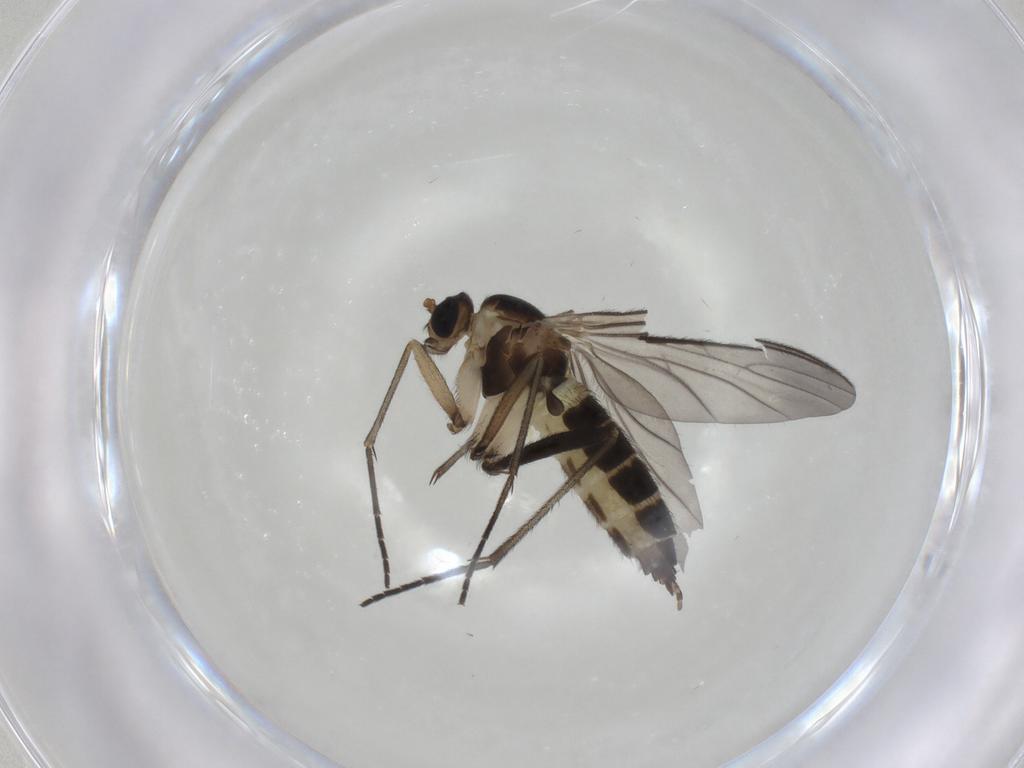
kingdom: Animalia
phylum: Arthropoda
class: Insecta
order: Diptera
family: Sciaridae
